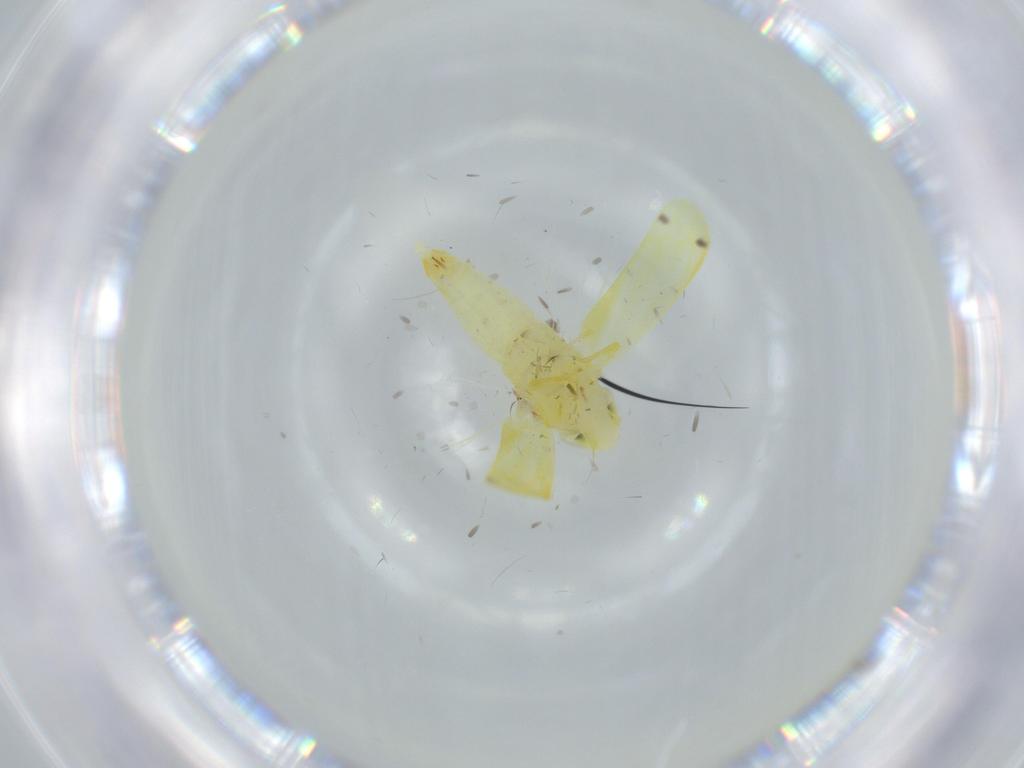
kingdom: Animalia
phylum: Arthropoda
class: Insecta
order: Hemiptera
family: Cicadellidae
